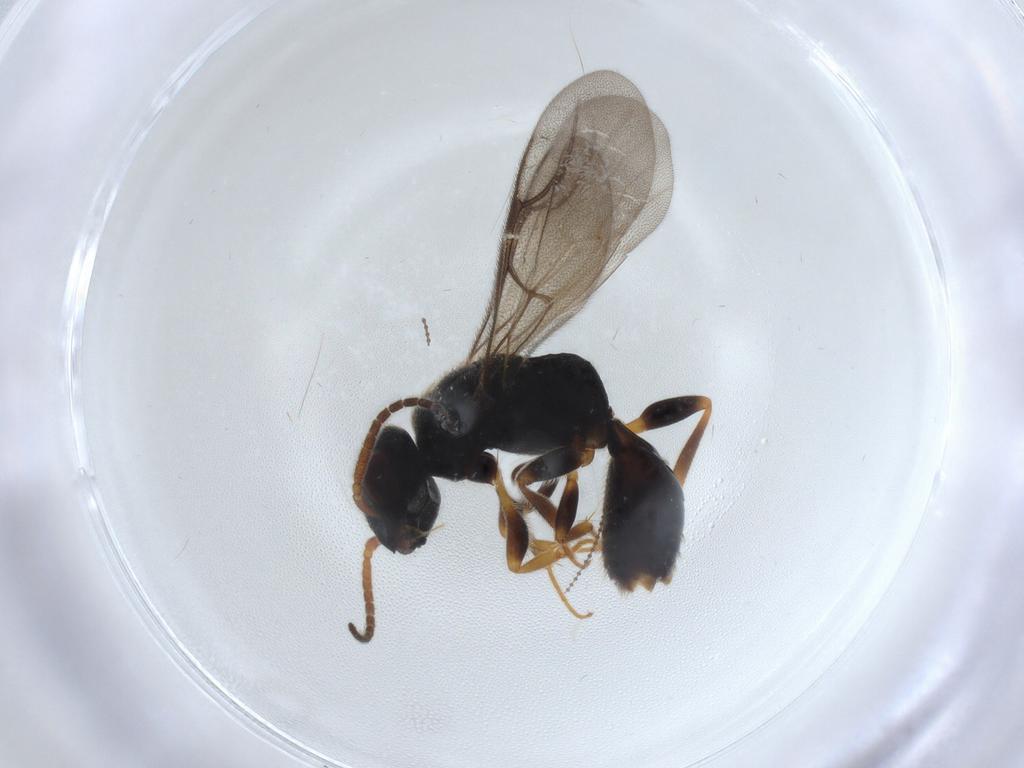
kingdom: Animalia
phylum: Arthropoda
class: Insecta
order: Hymenoptera
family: Bethylidae
